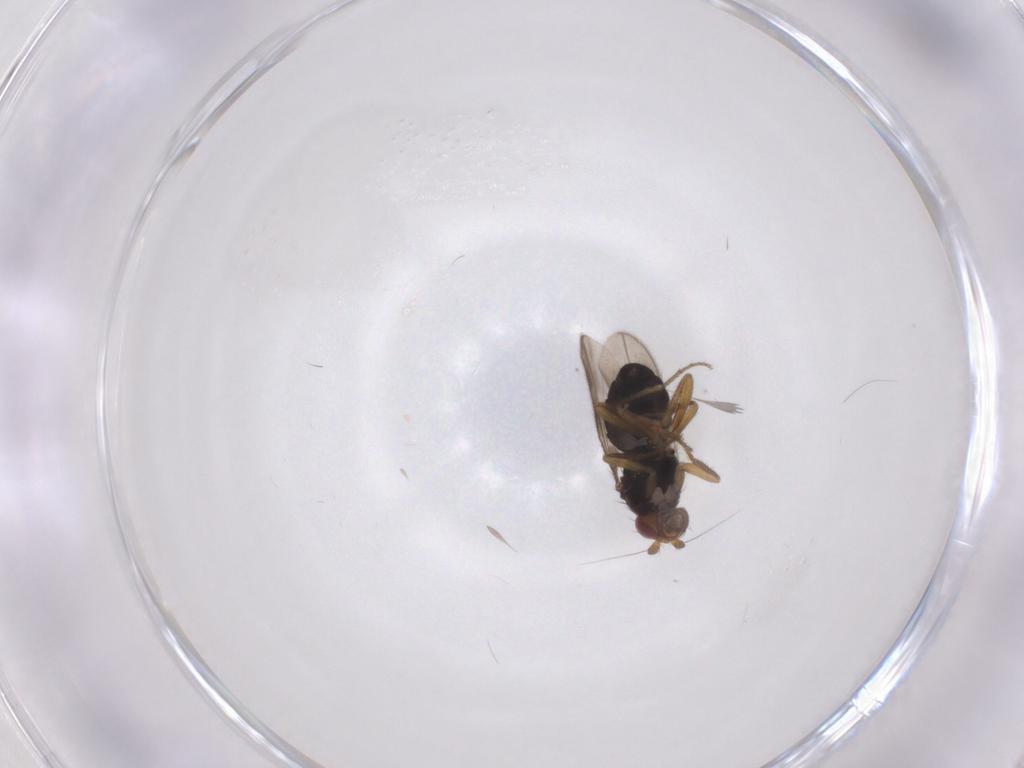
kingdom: Animalia
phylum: Arthropoda
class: Insecta
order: Diptera
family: Sphaeroceridae
